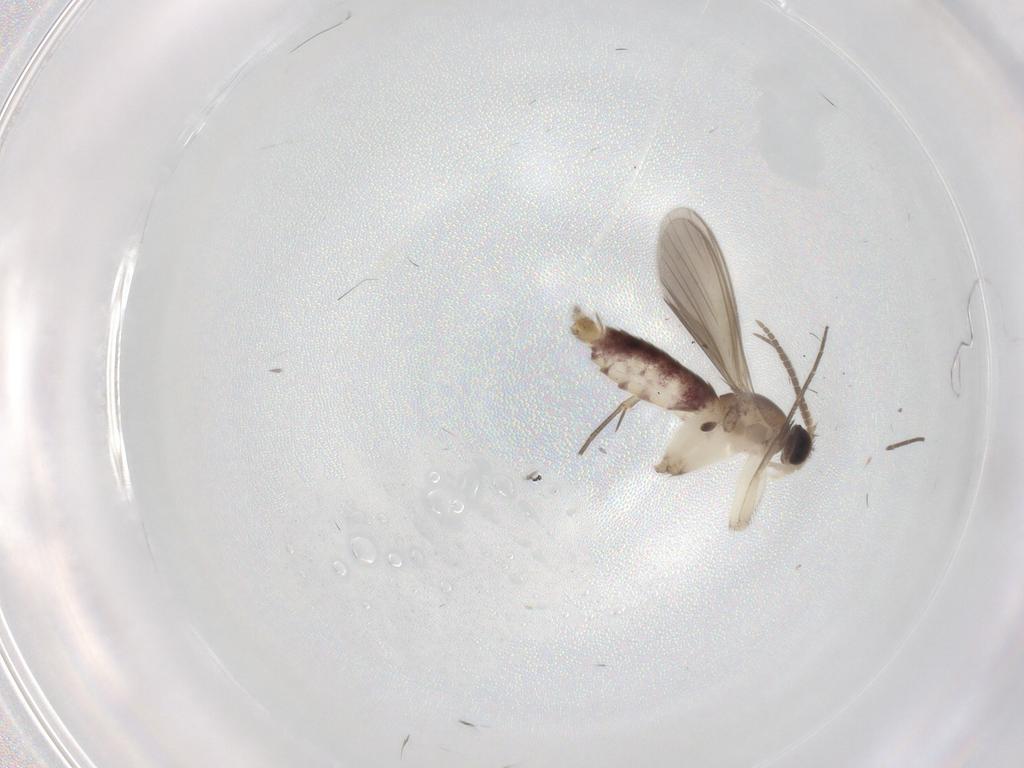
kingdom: Animalia
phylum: Arthropoda
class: Insecta
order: Diptera
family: Mycetophilidae
